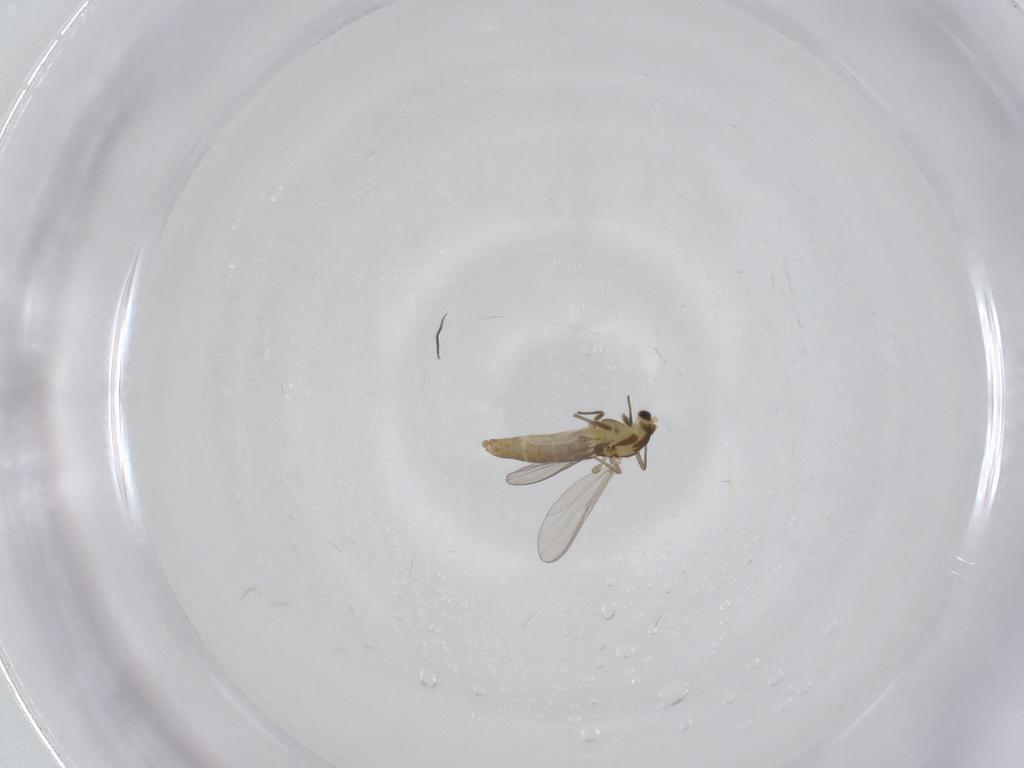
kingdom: Animalia
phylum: Arthropoda
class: Insecta
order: Diptera
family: Chironomidae
